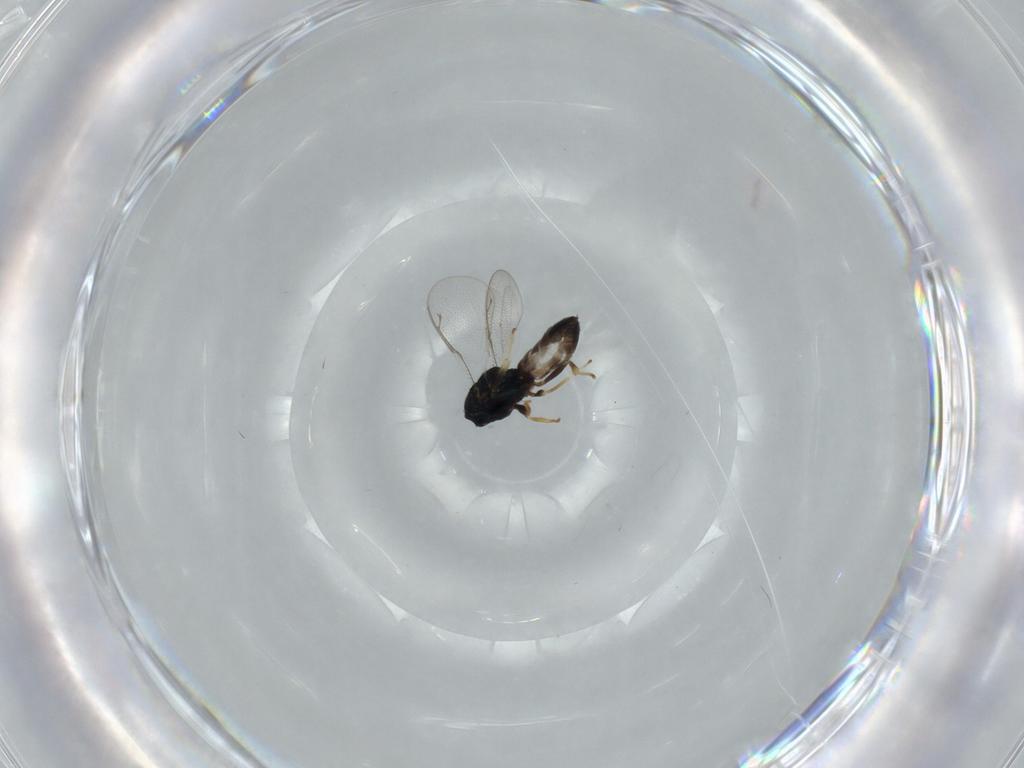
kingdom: Animalia
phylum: Arthropoda
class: Insecta
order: Hymenoptera
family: Pteromalidae
